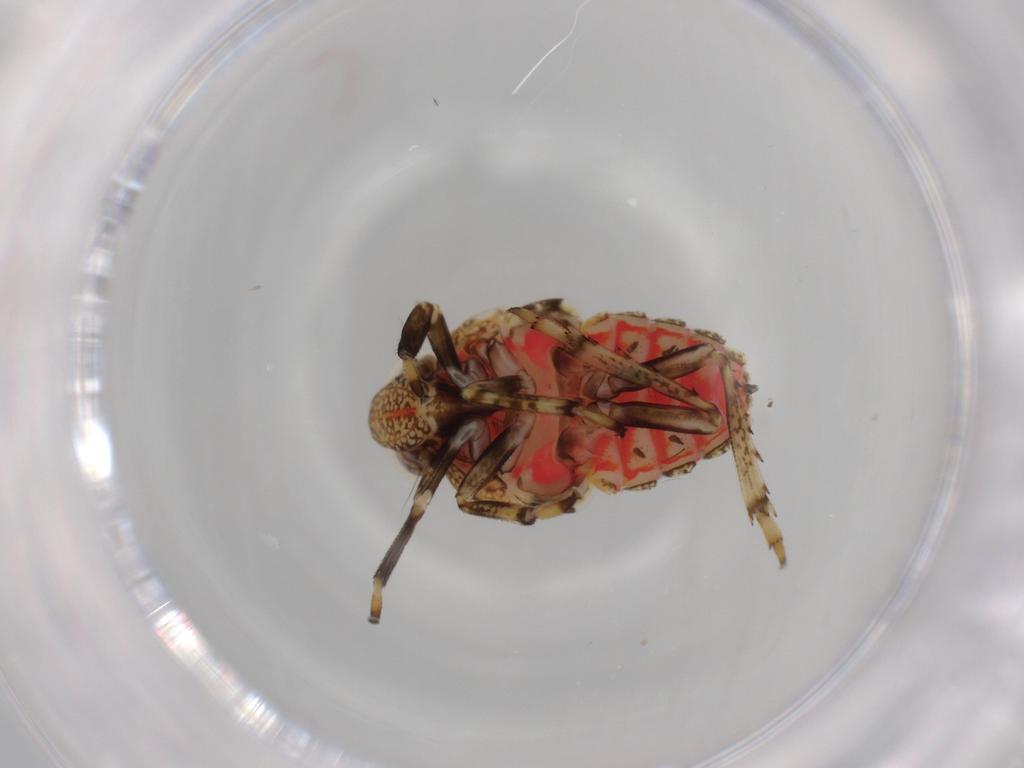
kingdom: Animalia
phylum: Arthropoda
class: Insecta
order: Hemiptera
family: Issidae
